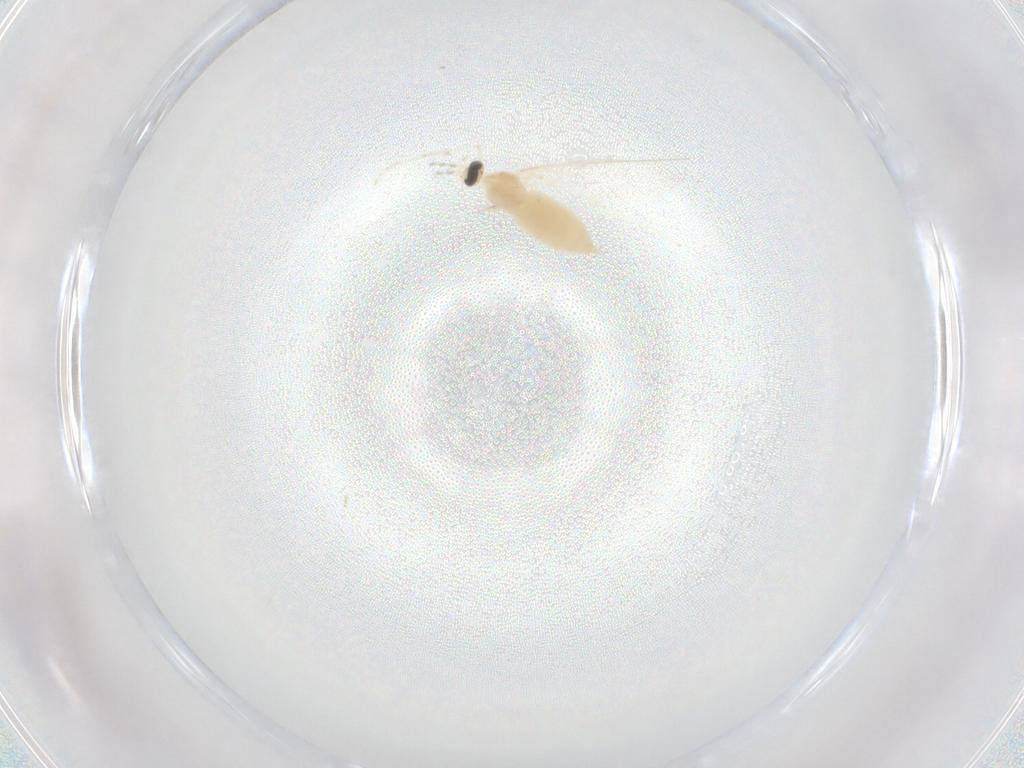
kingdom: Animalia
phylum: Arthropoda
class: Insecta
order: Diptera
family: Cecidomyiidae
